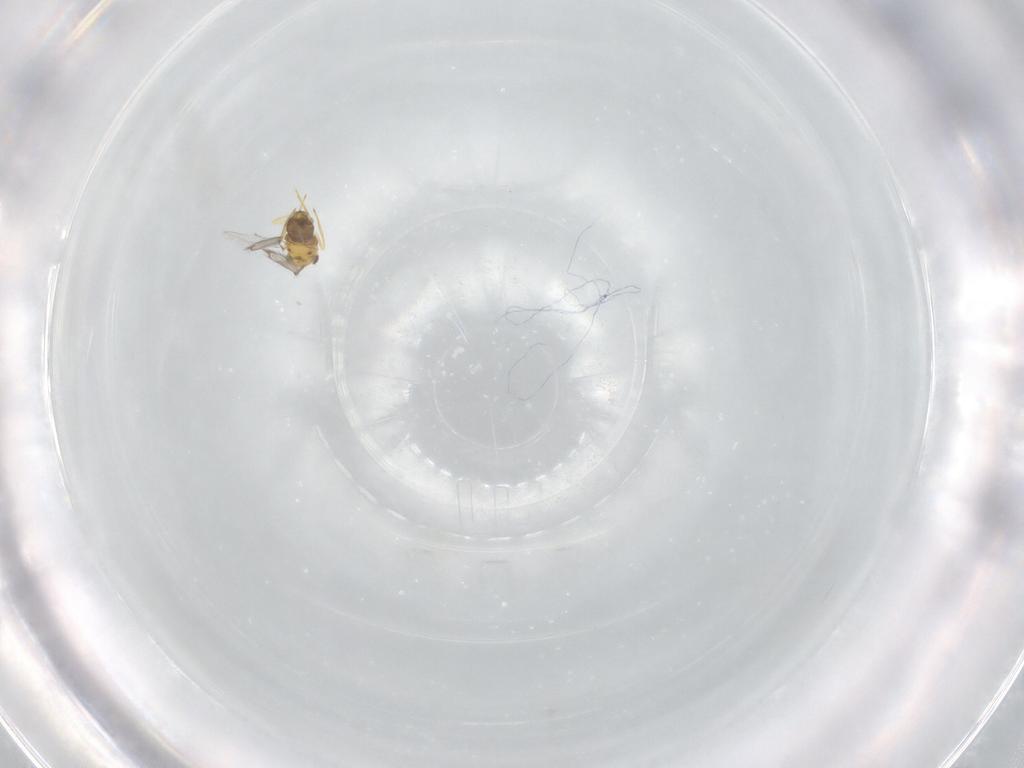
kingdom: Animalia
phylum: Arthropoda
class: Insecta
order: Hymenoptera
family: Aphelinidae
